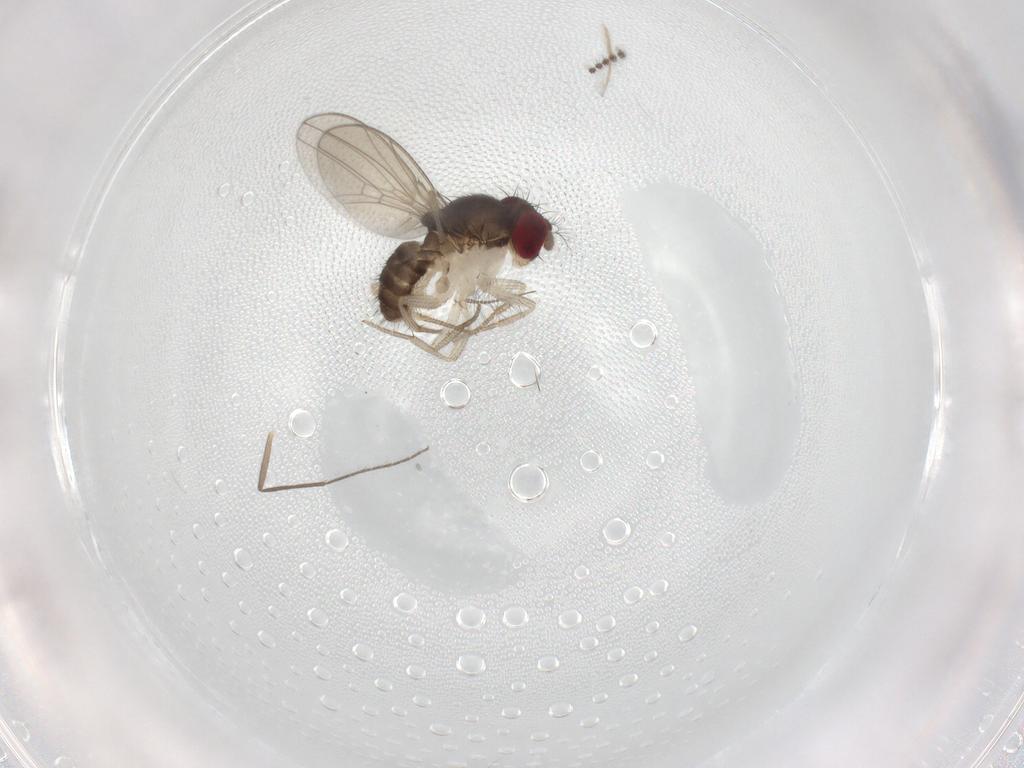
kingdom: Animalia
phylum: Arthropoda
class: Insecta
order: Diptera
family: Drosophilidae
